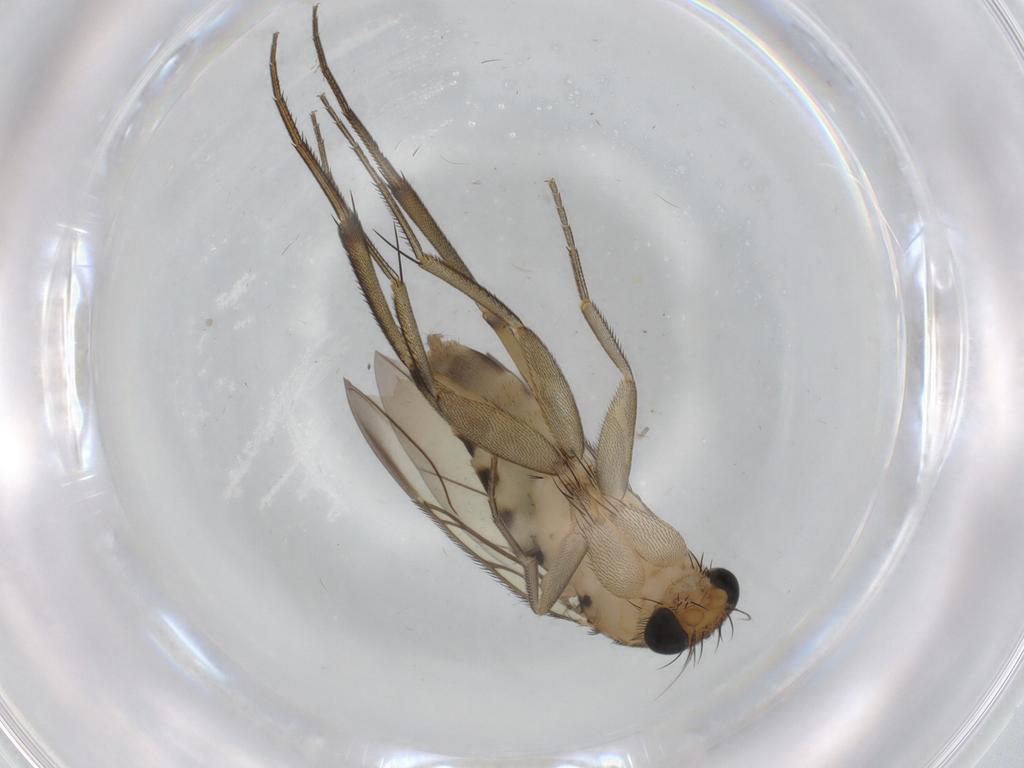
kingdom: Animalia
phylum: Arthropoda
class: Insecta
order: Diptera
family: Phoridae
